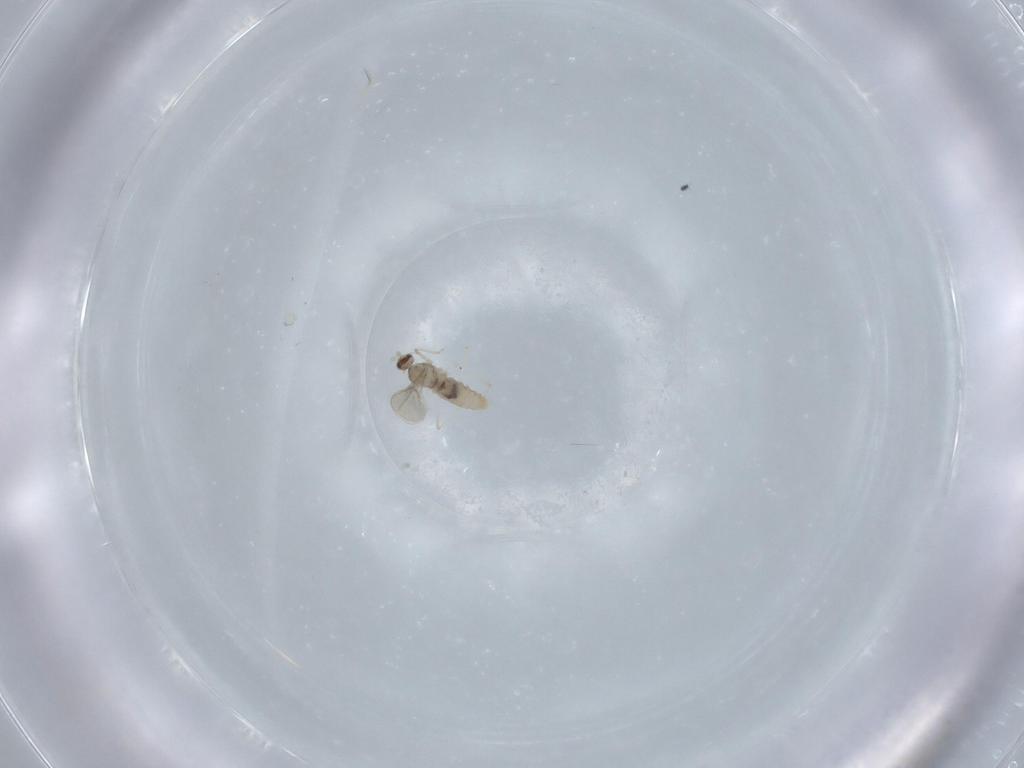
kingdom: Animalia
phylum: Arthropoda
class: Insecta
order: Diptera
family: Cecidomyiidae
